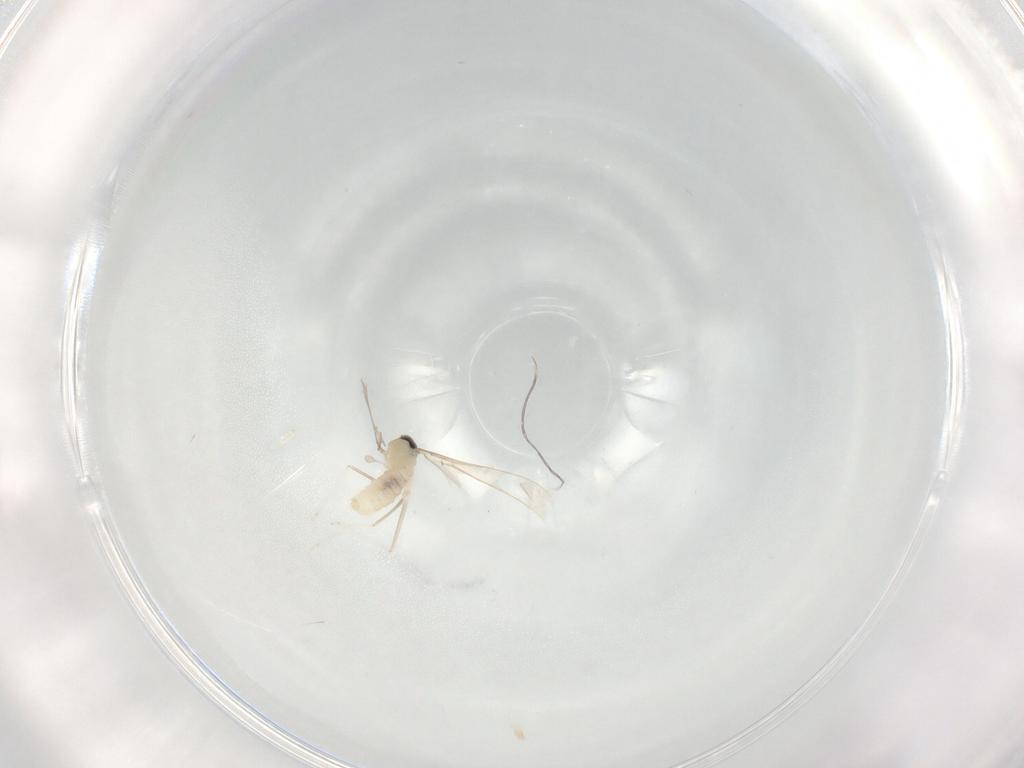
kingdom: Animalia
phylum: Arthropoda
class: Insecta
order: Diptera
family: Cecidomyiidae
